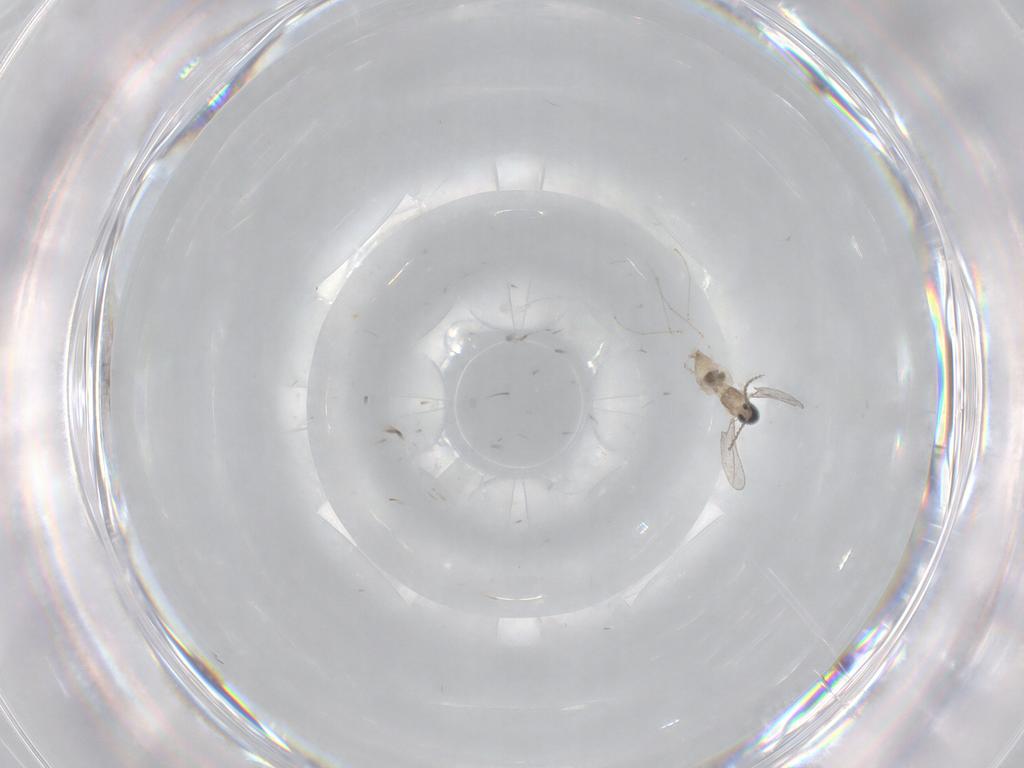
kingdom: Animalia
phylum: Arthropoda
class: Insecta
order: Diptera
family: Cecidomyiidae
